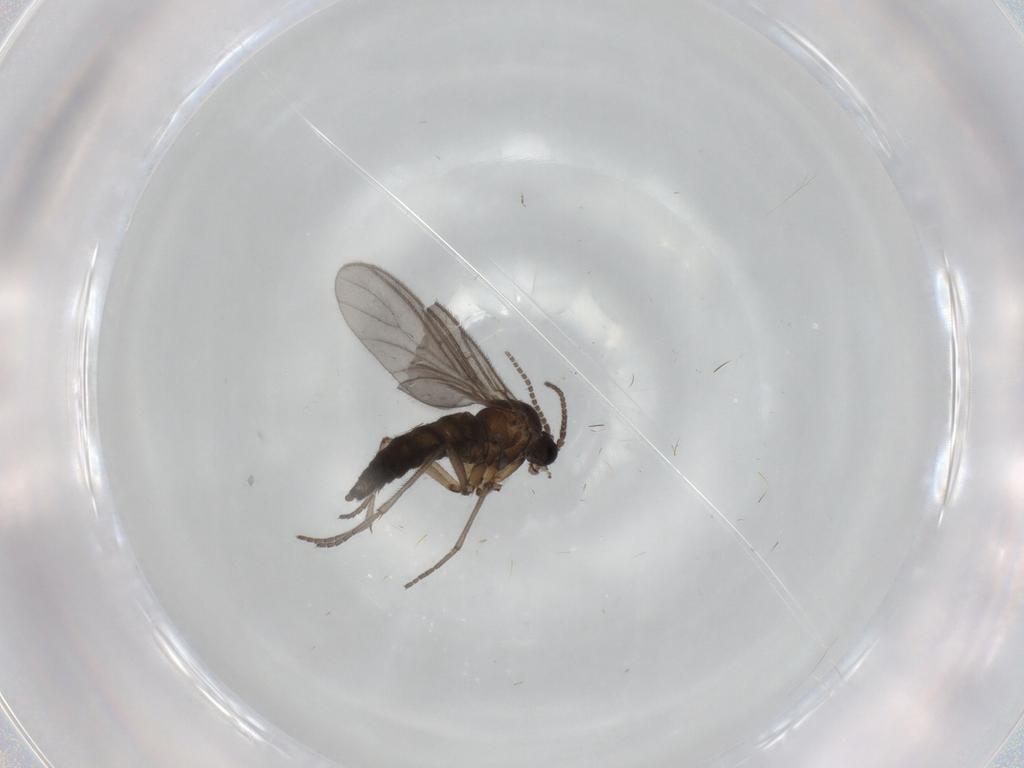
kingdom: Animalia
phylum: Arthropoda
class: Insecta
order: Diptera
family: Sciaridae
